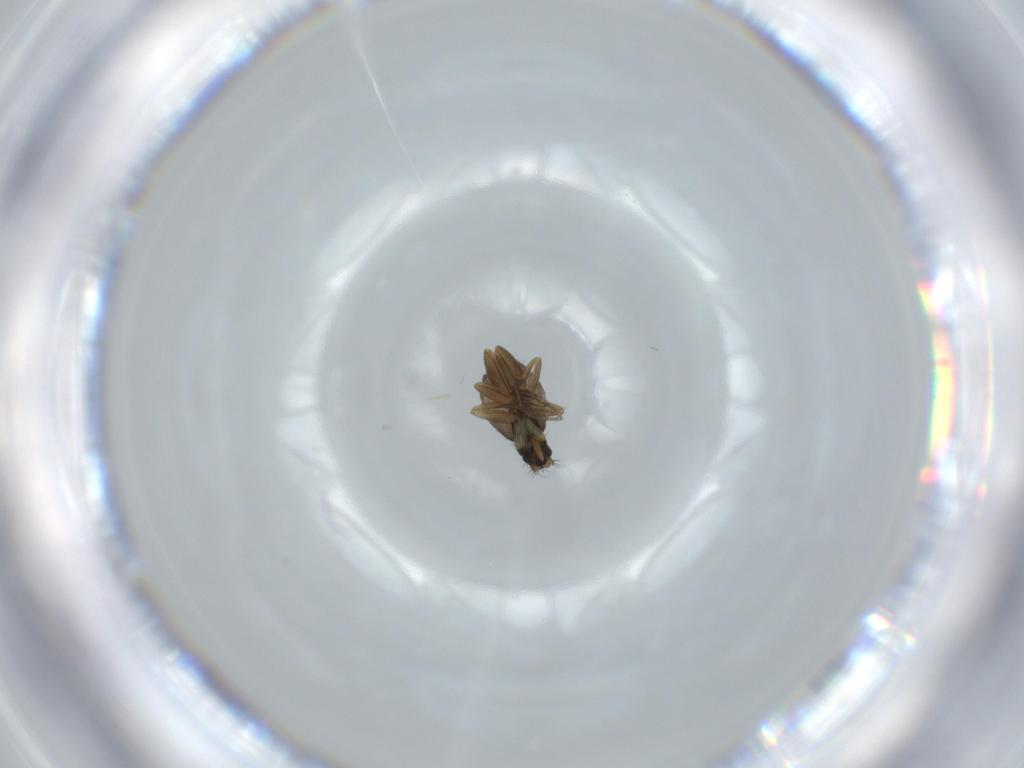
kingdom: Animalia
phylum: Arthropoda
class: Insecta
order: Diptera
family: Phoridae
